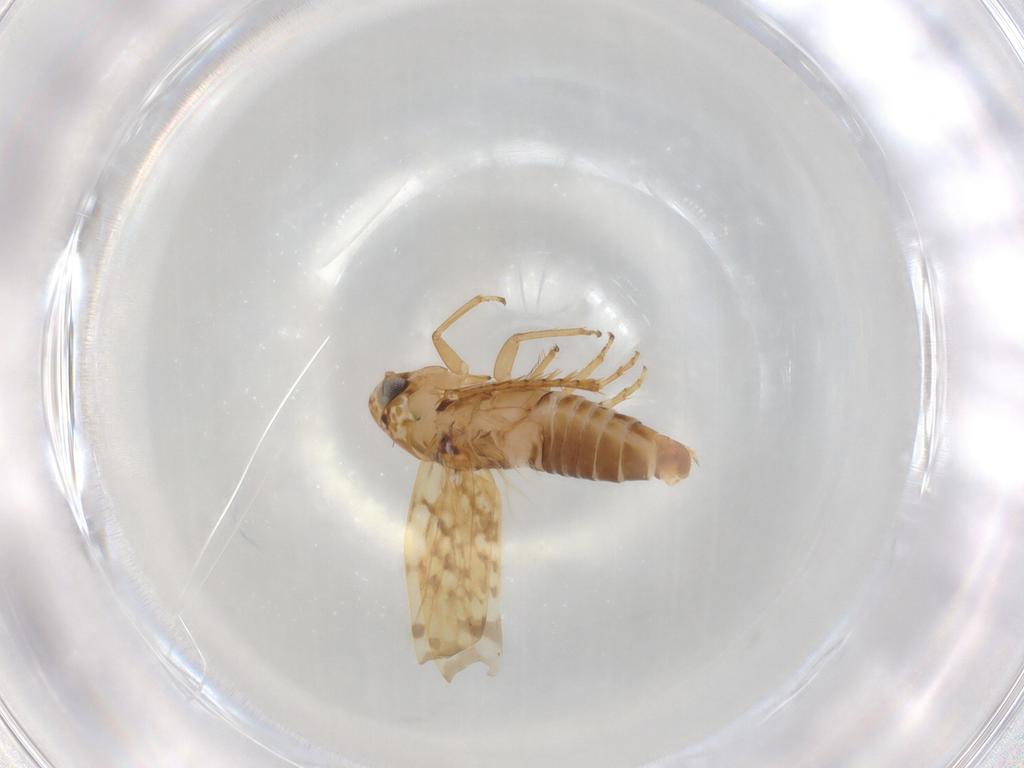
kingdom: Animalia
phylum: Arthropoda
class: Insecta
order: Hemiptera
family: Cicadellidae
